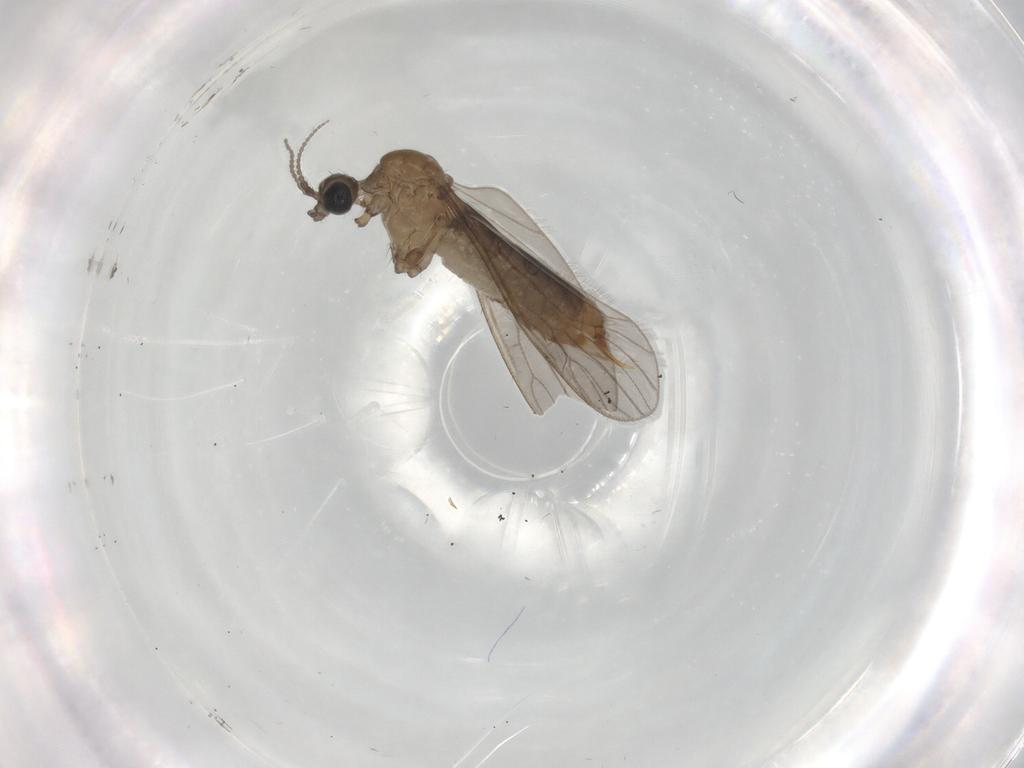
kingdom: Animalia
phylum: Arthropoda
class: Insecta
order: Diptera
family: Limoniidae
